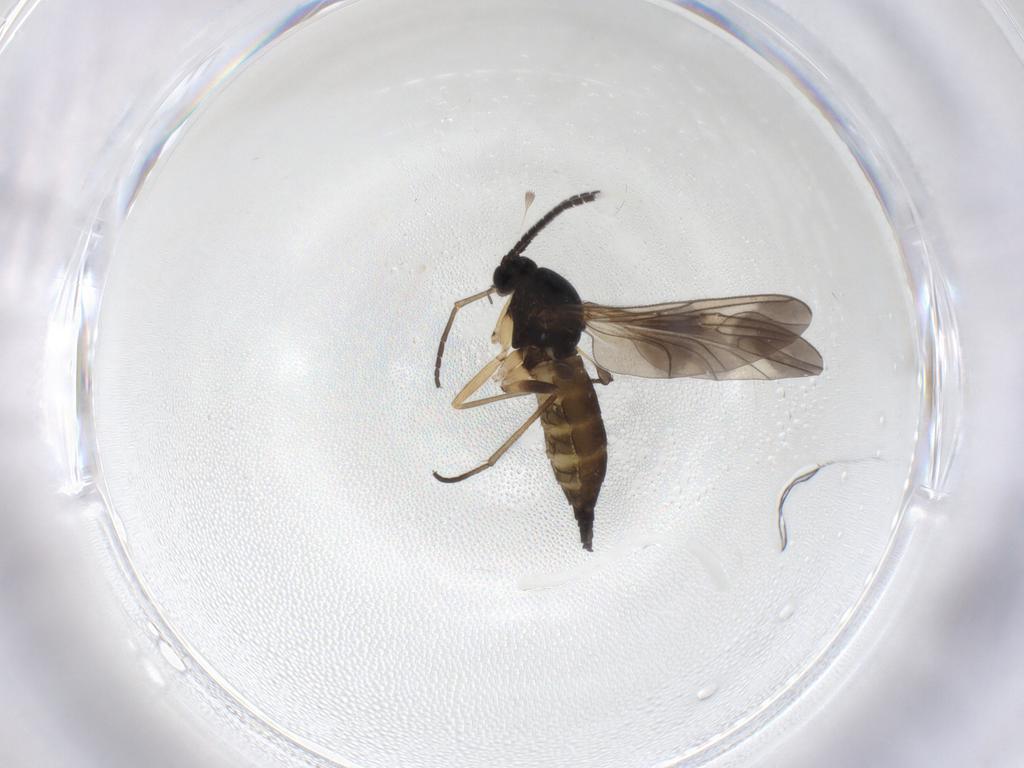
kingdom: Animalia
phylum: Arthropoda
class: Insecta
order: Diptera
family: Sciaridae
